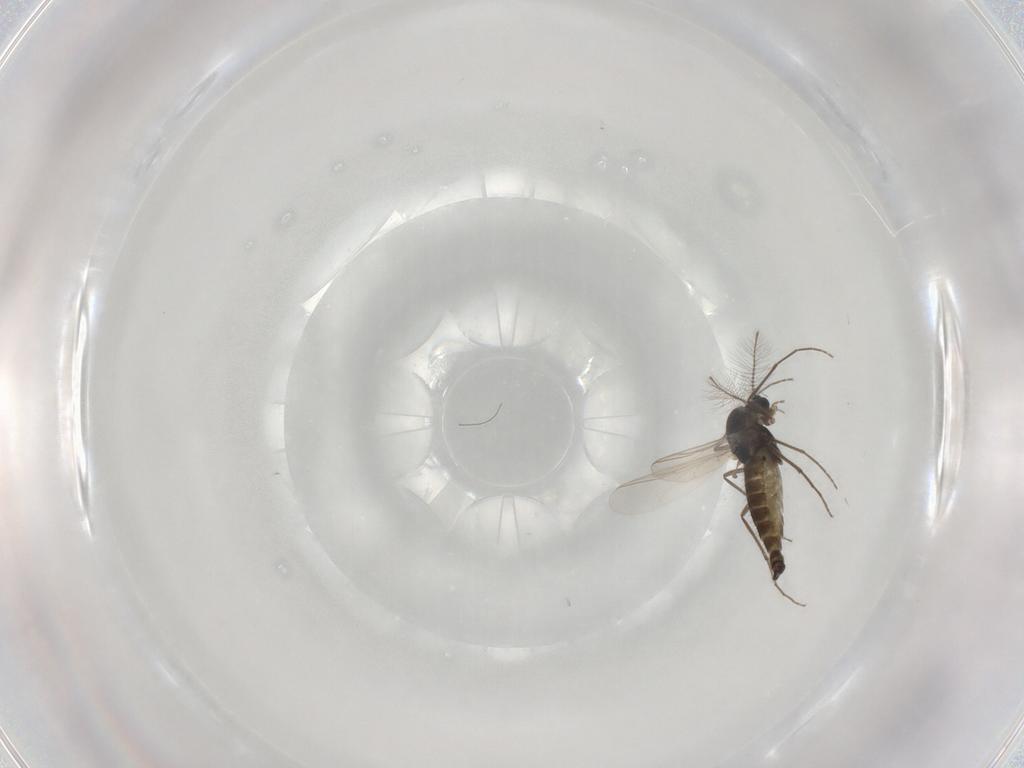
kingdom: Animalia
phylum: Arthropoda
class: Insecta
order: Diptera
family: Chironomidae
